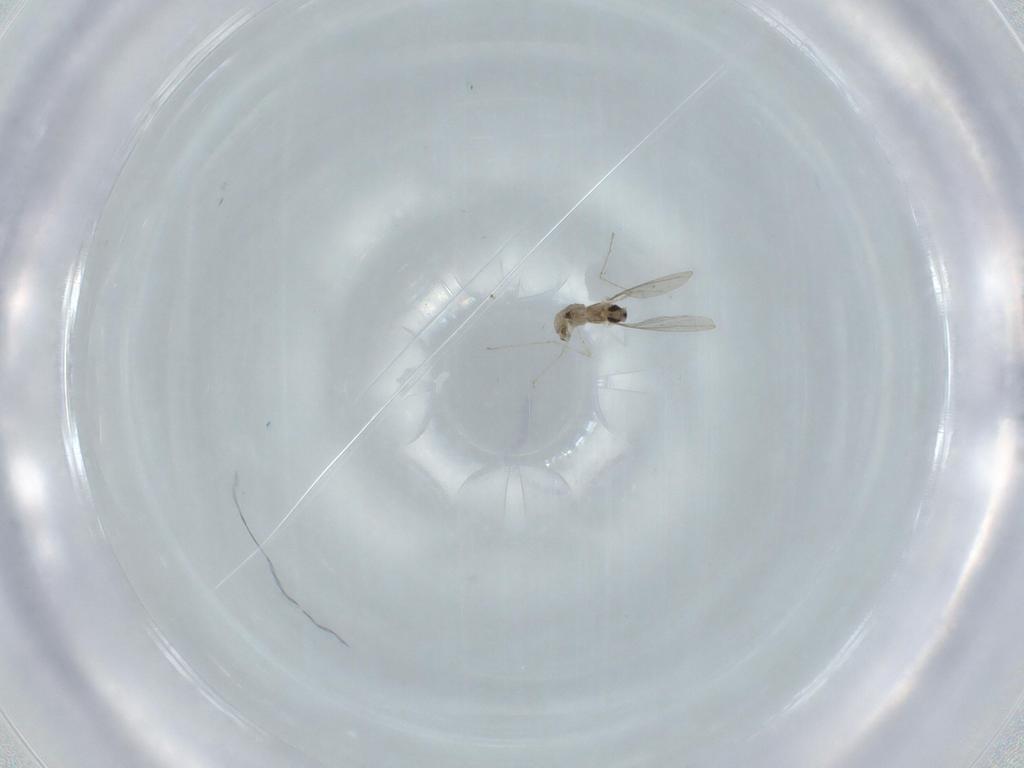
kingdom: Animalia
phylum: Arthropoda
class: Insecta
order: Diptera
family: Cecidomyiidae
